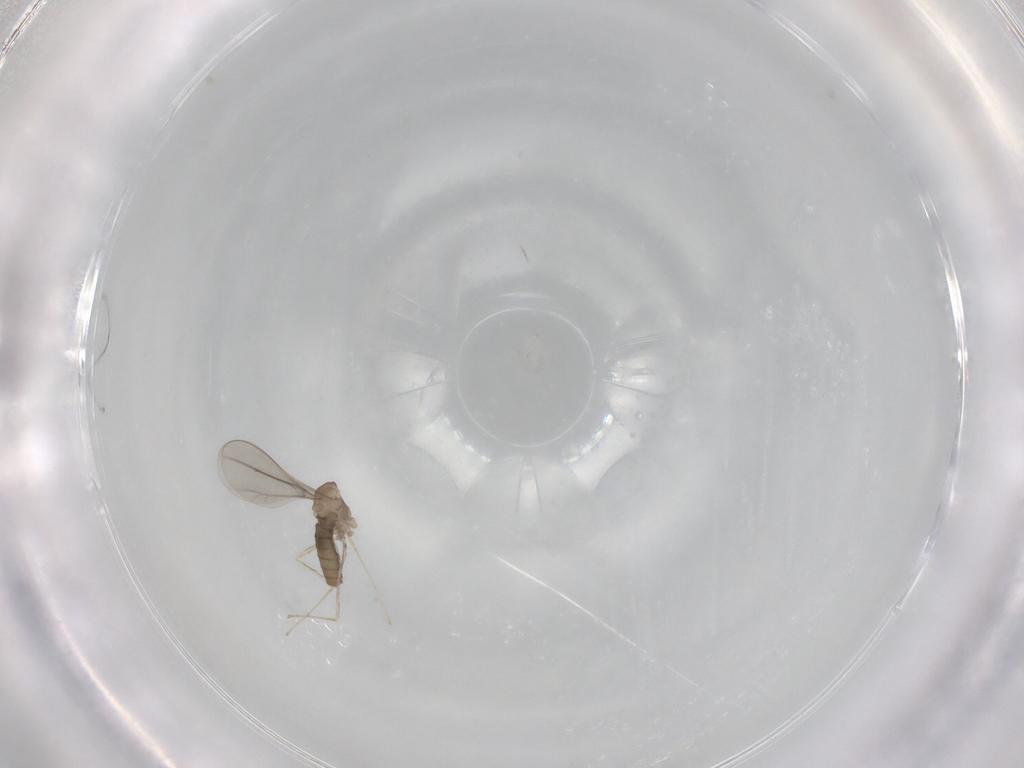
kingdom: Animalia
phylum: Arthropoda
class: Insecta
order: Diptera
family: Cecidomyiidae
